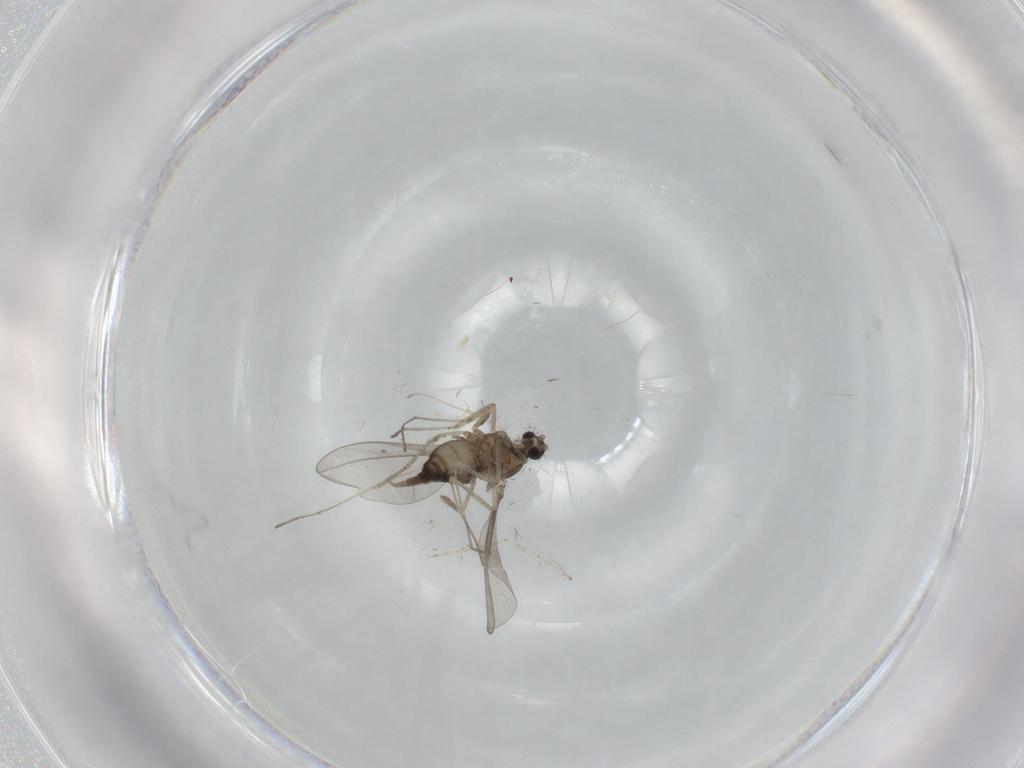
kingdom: Animalia
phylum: Arthropoda
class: Insecta
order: Diptera
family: Cecidomyiidae
